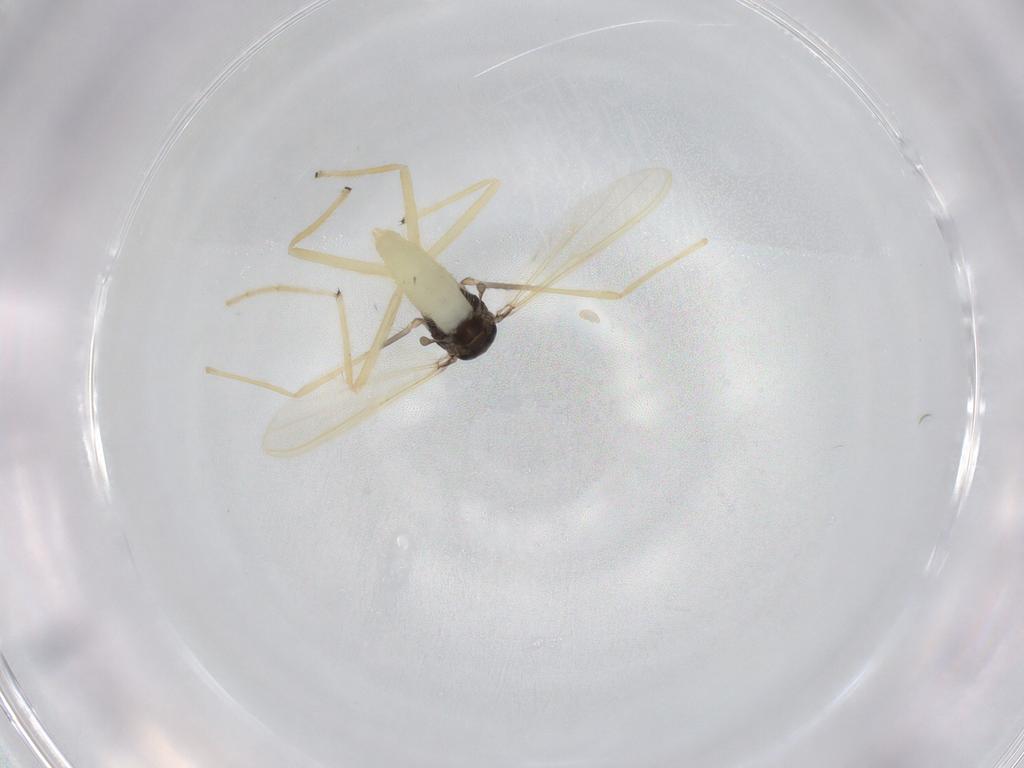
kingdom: Animalia
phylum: Arthropoda
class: Insecta
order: Diptera
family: Chironomidae
